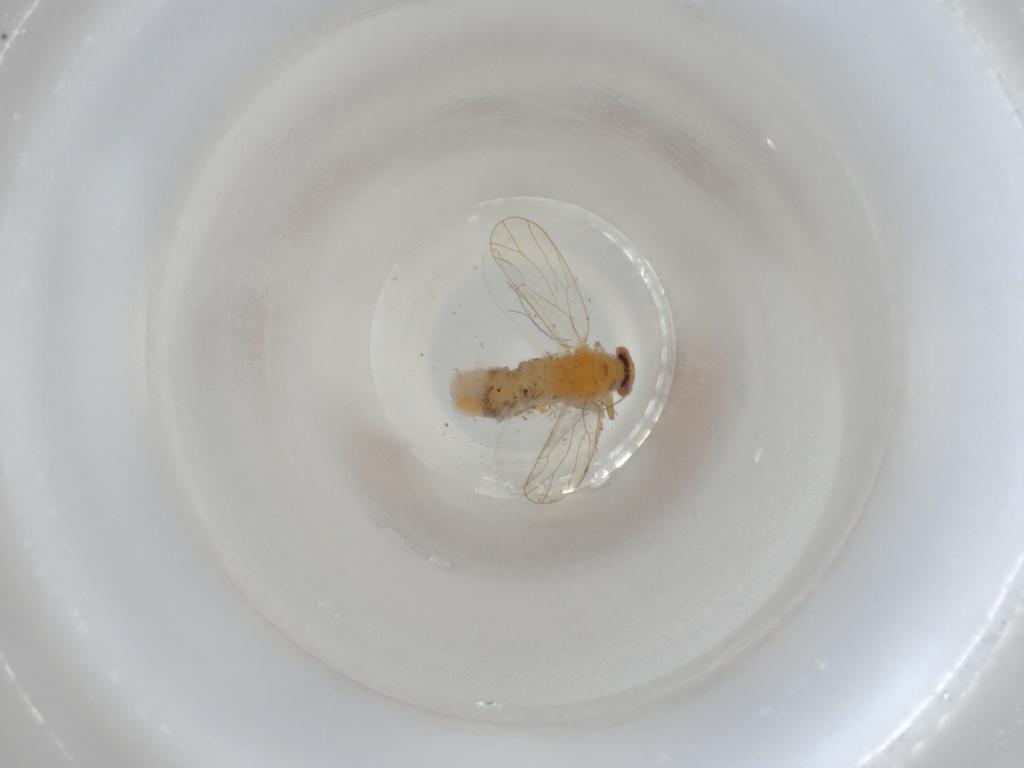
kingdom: Animalia
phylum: Arthropoda
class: Insecta
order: Hymenoptera
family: Formicidae
